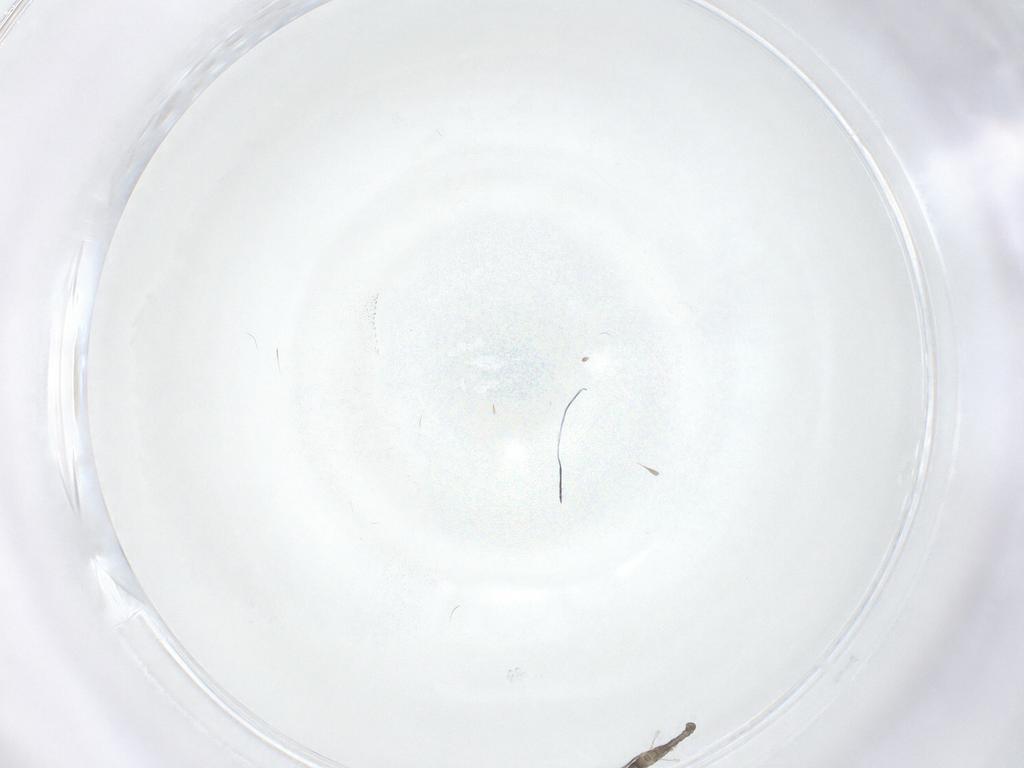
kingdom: Animalia
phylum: Arthropoda
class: Insecta
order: Diptera
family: Cecidomyiidae
